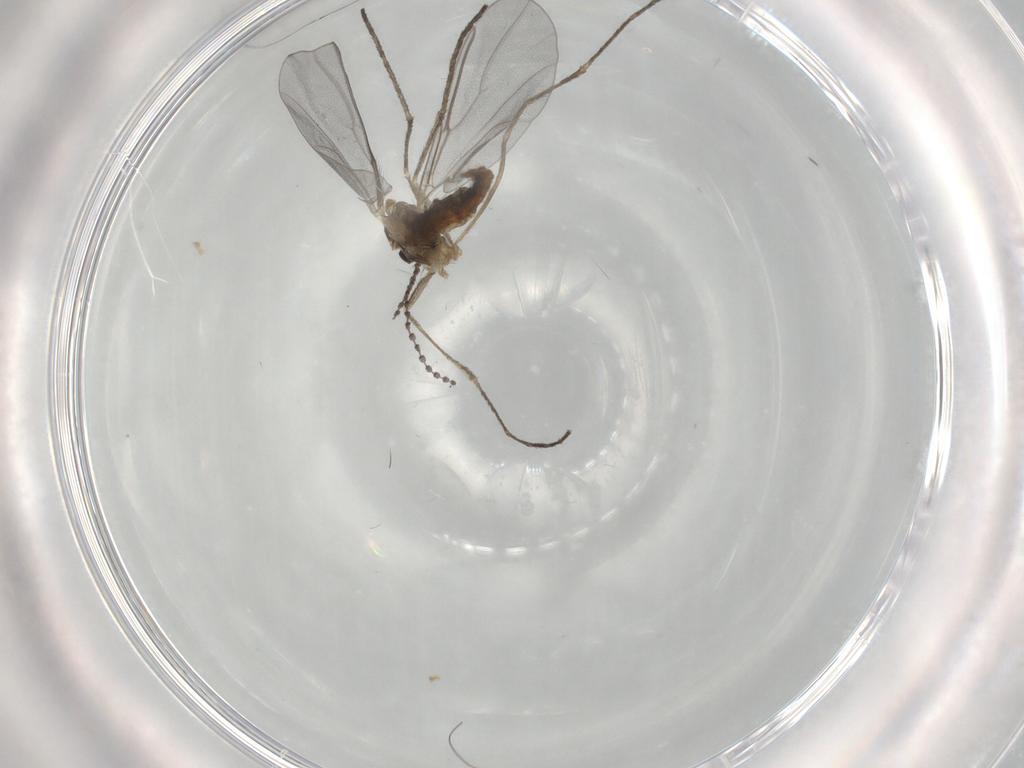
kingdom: Animalia
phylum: Arthropoda
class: Insecta
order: Diptera
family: Cecidomyiidae
